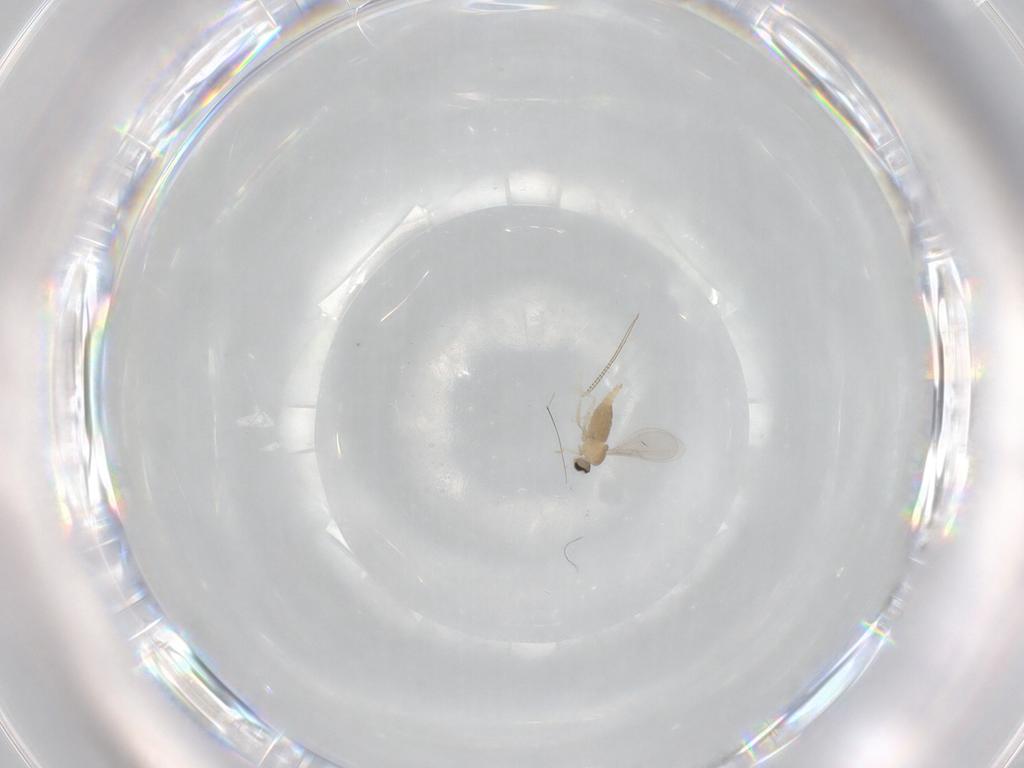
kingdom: Animalia
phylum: Arthropoda
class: Insecta
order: Diptera
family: Cecidomyiidae
